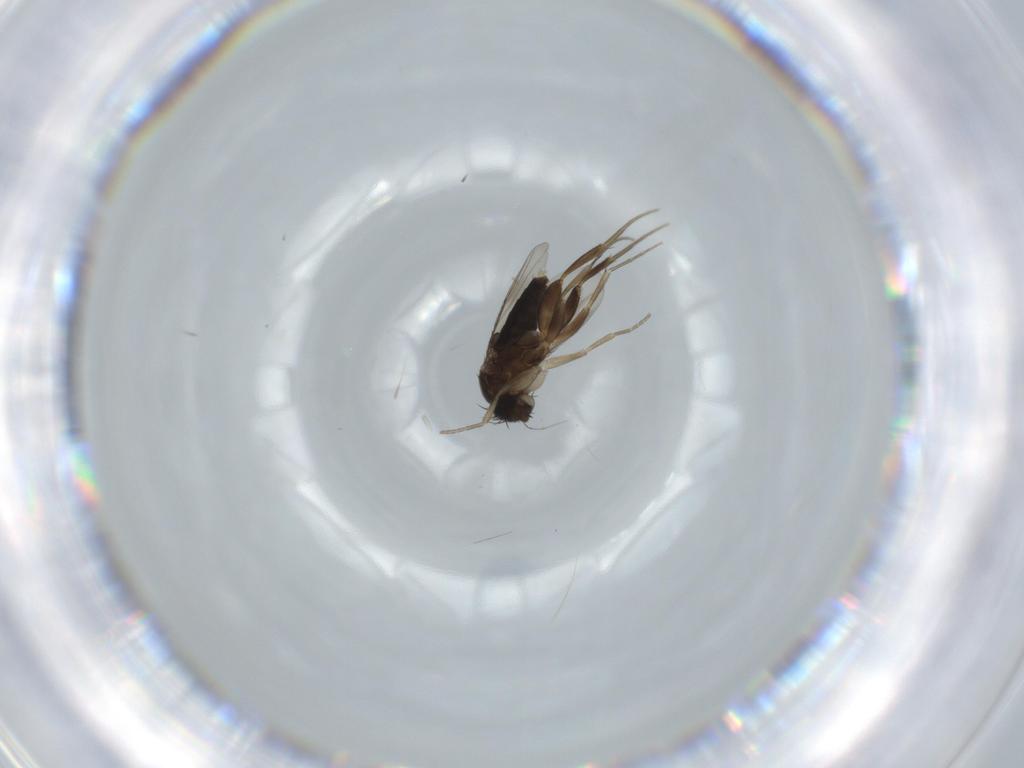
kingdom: Animalia
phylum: Arthropoda
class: Insecta
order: Diptera
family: Phoridae
